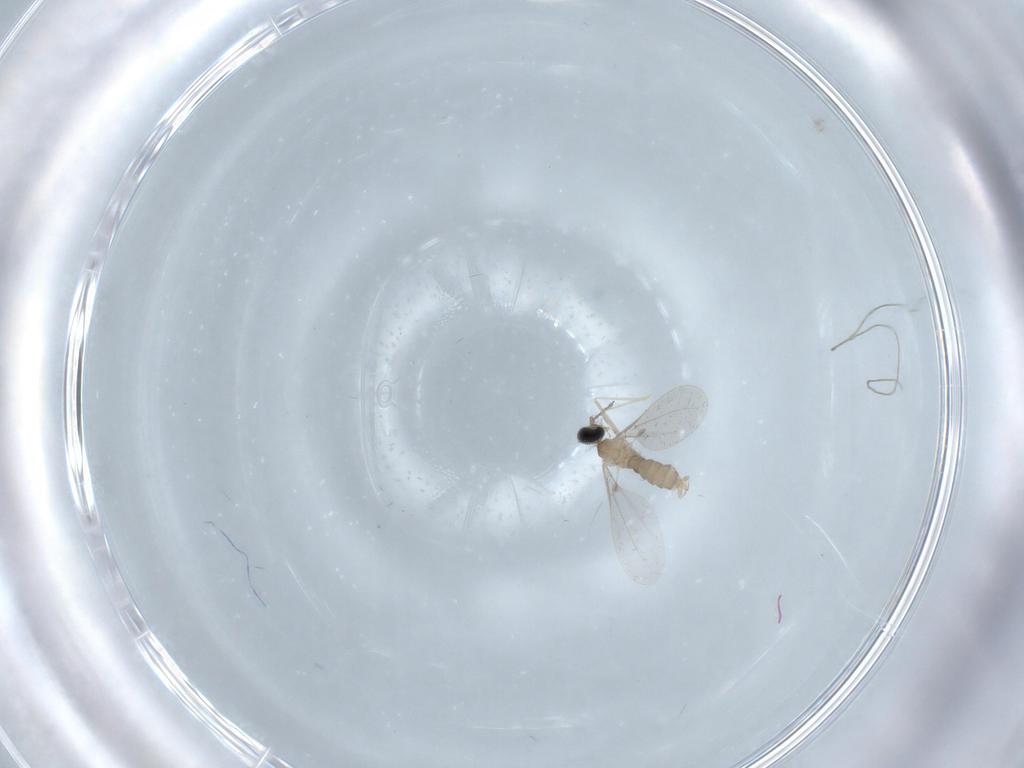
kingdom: Animalia
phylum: Arthropoda
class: Insecta
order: Diptera
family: Cecidomyiidae
